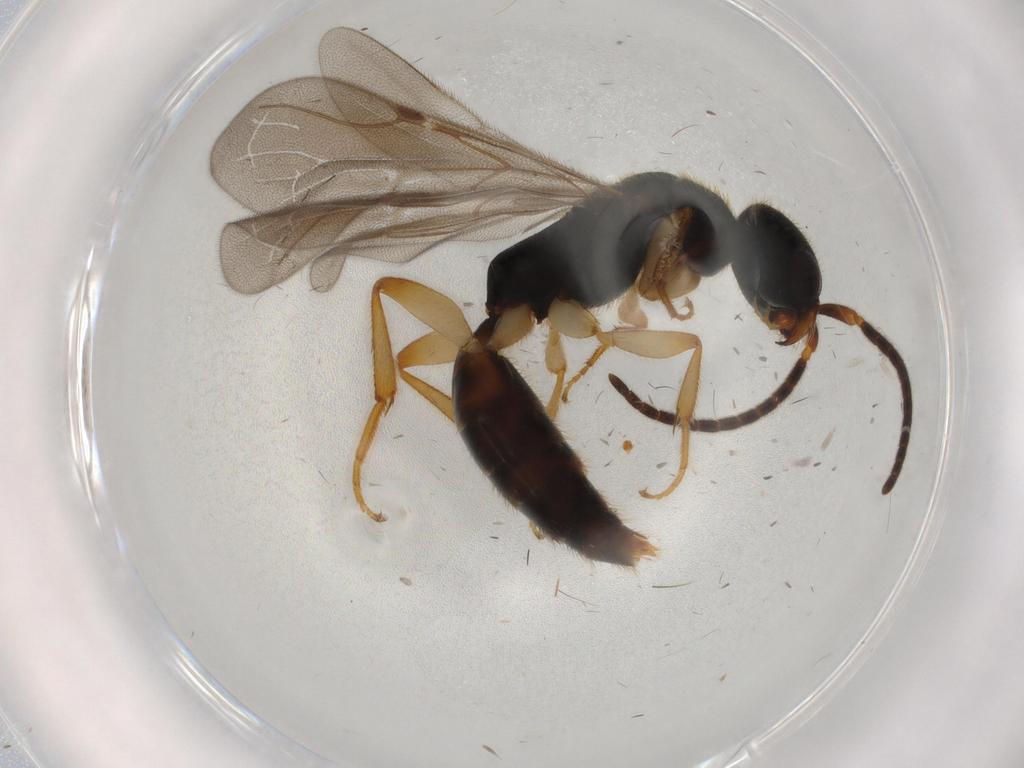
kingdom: Animalia
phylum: Arthropoda
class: Insecta
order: Hymenoptera
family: Bethylidae
